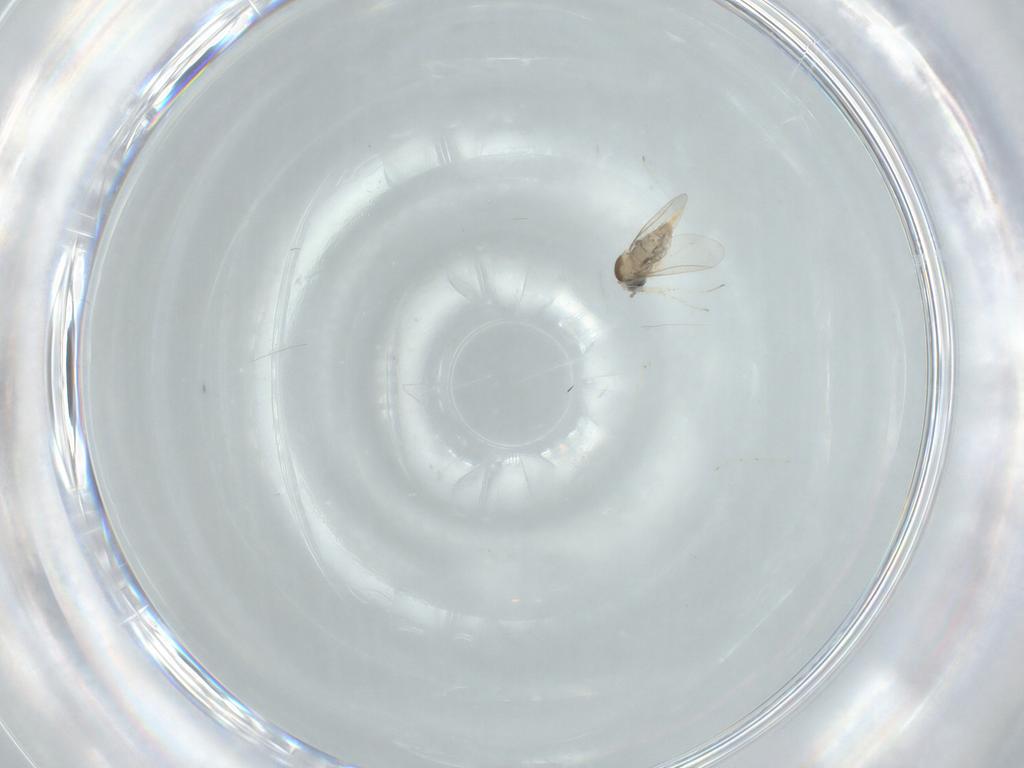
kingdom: Animalia
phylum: Arthropoda
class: Insecta
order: Diptera
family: Cecidomyiidae
